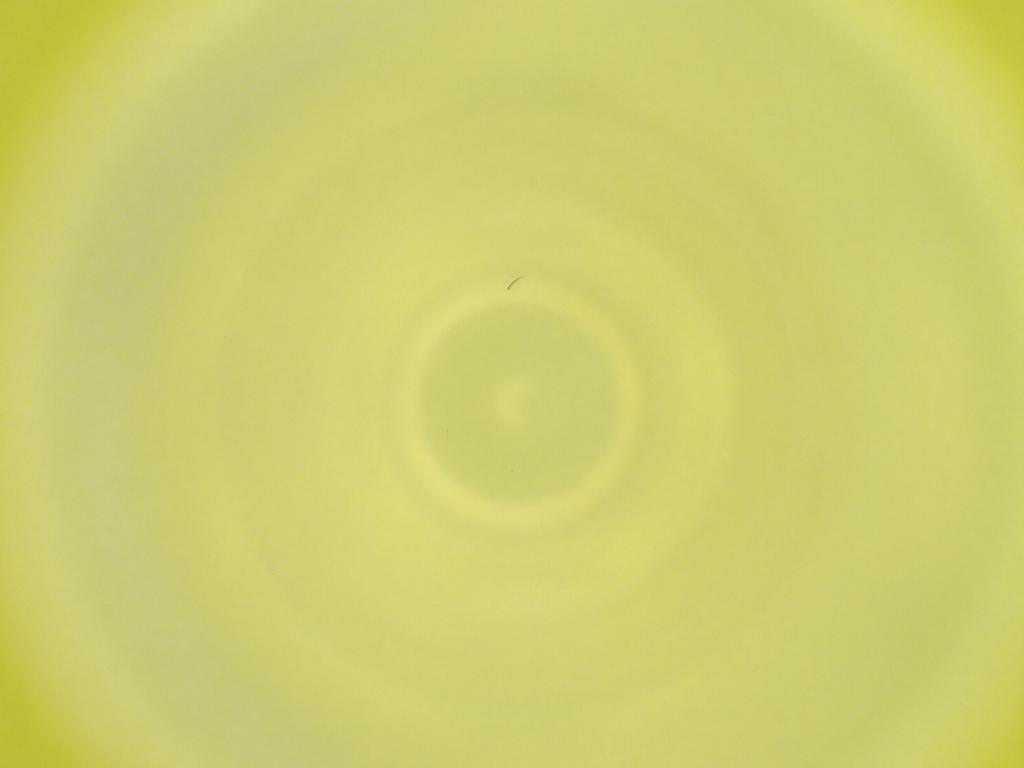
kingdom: Animalia
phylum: Arthropoda
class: Insecta
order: Diptera
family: Cecidomyiidae
